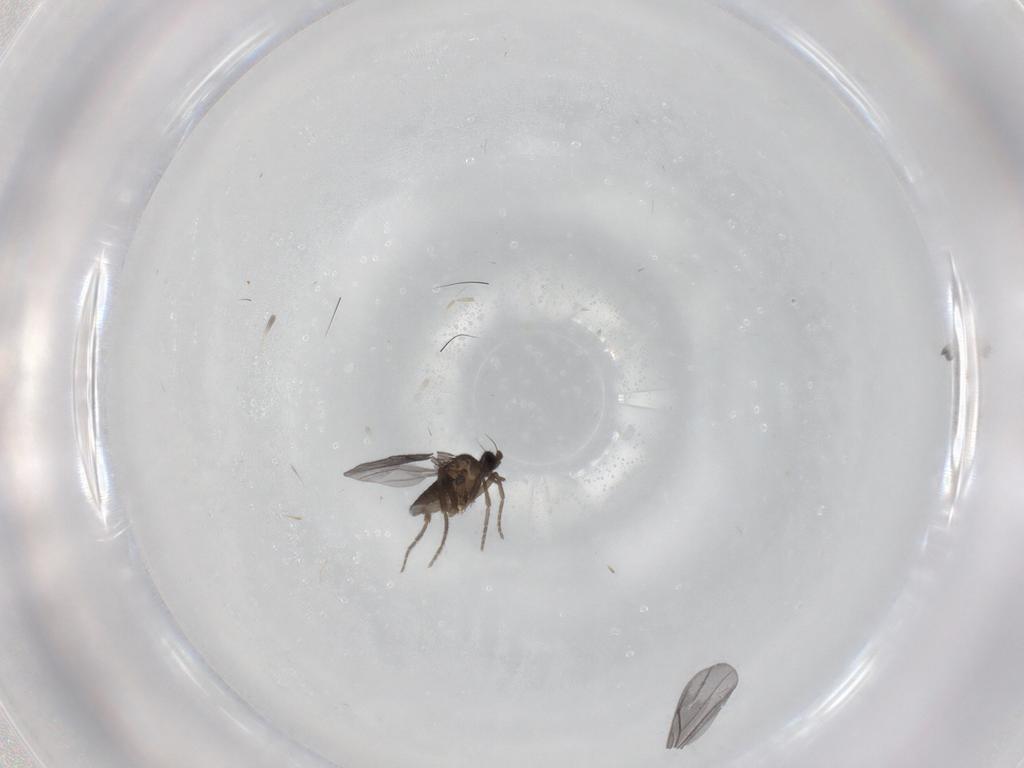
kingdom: Animalia
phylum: Arthropoda
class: Insecta
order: Diptera
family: Phoridae
